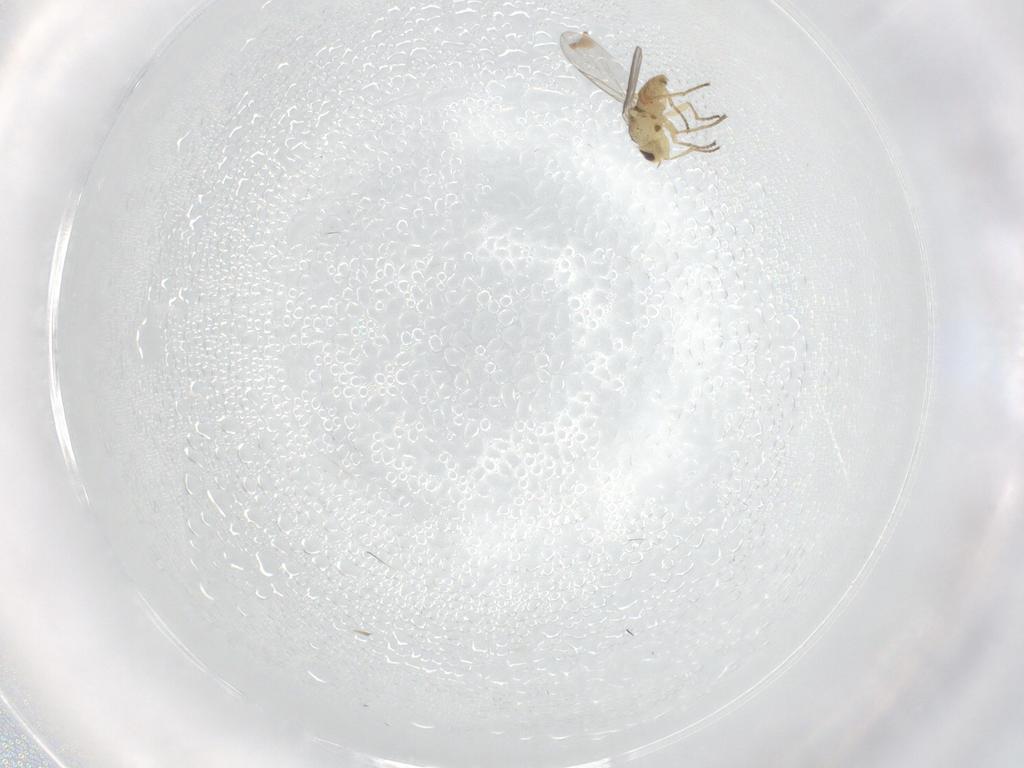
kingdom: Animalia
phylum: Arthropoda
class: Insecta
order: Diptera
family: Agromyzidae
